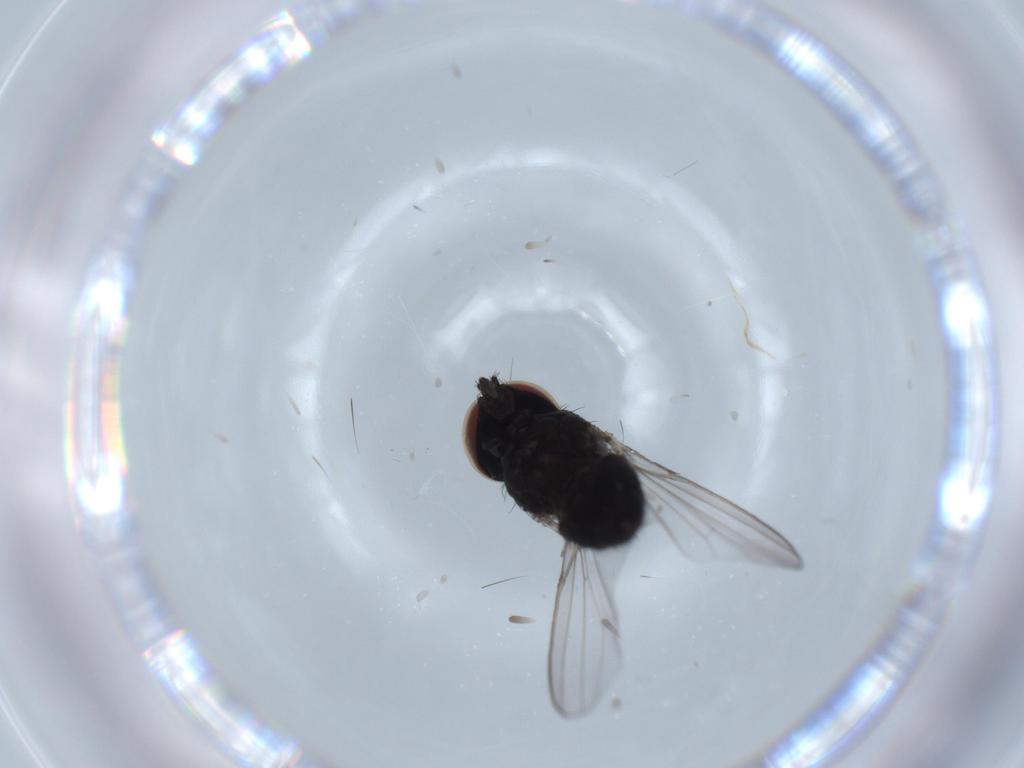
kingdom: Animalia
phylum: Arthropoda
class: Insecta
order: Diptera
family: Milichiidae
